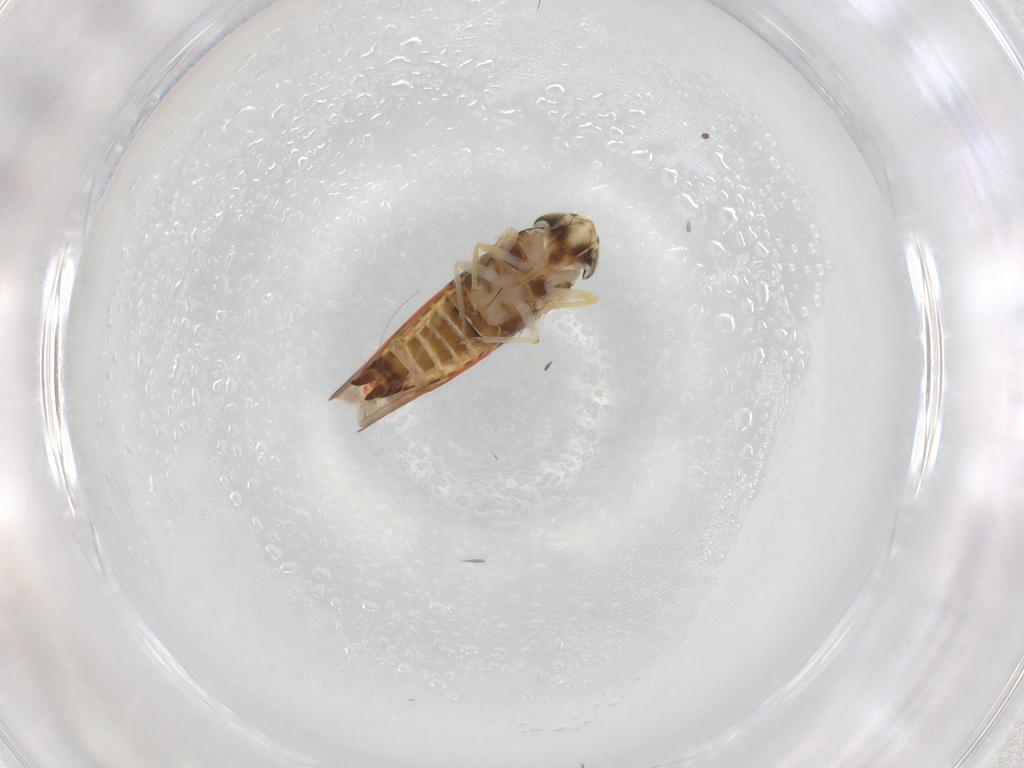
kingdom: Animalia
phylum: Arthropoda
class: Insecta
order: Hemiptera
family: Cicadellidae
